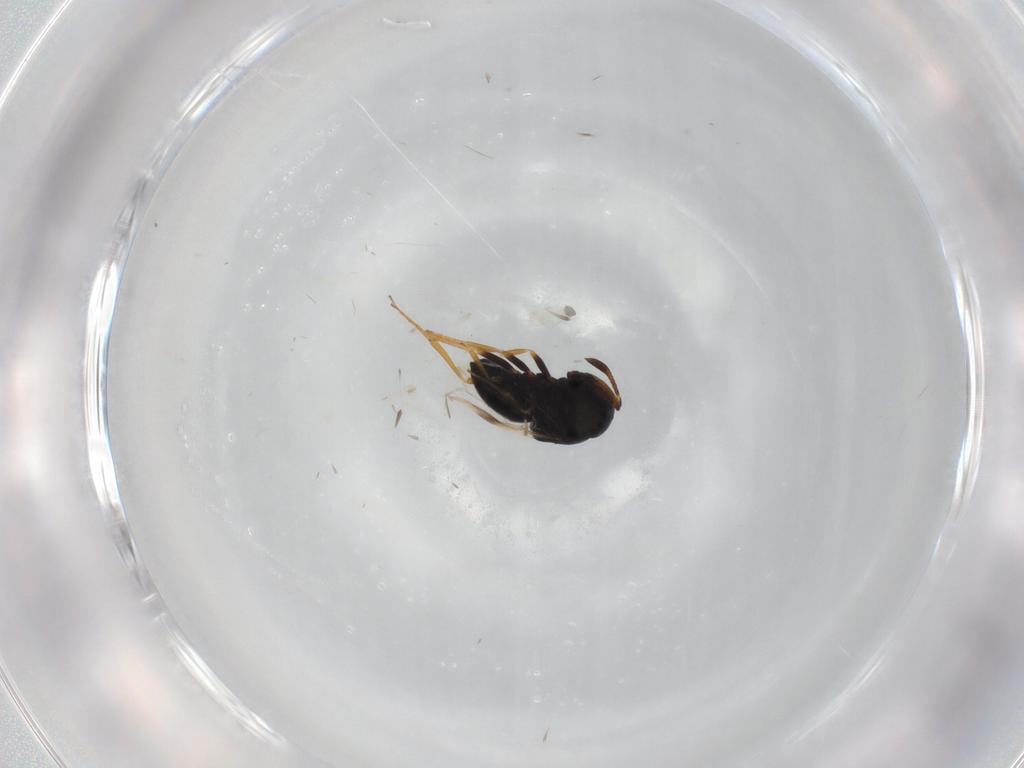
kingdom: Animalia
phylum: Arthropoda
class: Insecta
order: Hymenoptera
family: Scelionidae
